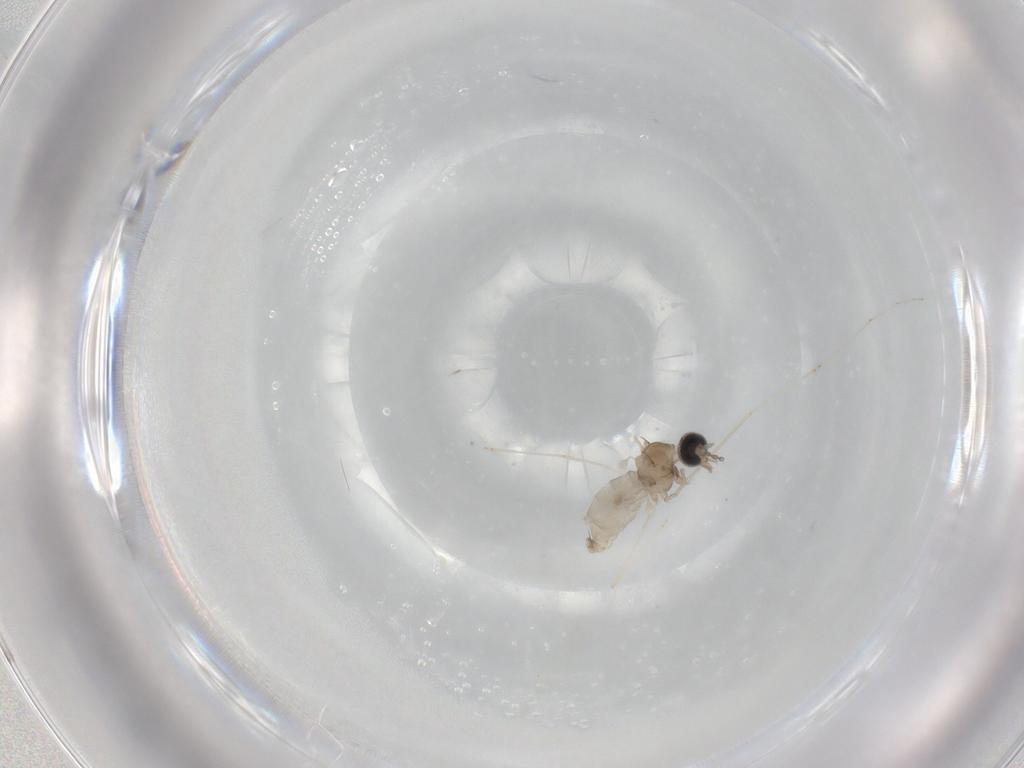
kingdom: Animalia
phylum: Arthropoda
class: Insecta
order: Diptera
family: Cecidomyiidae
